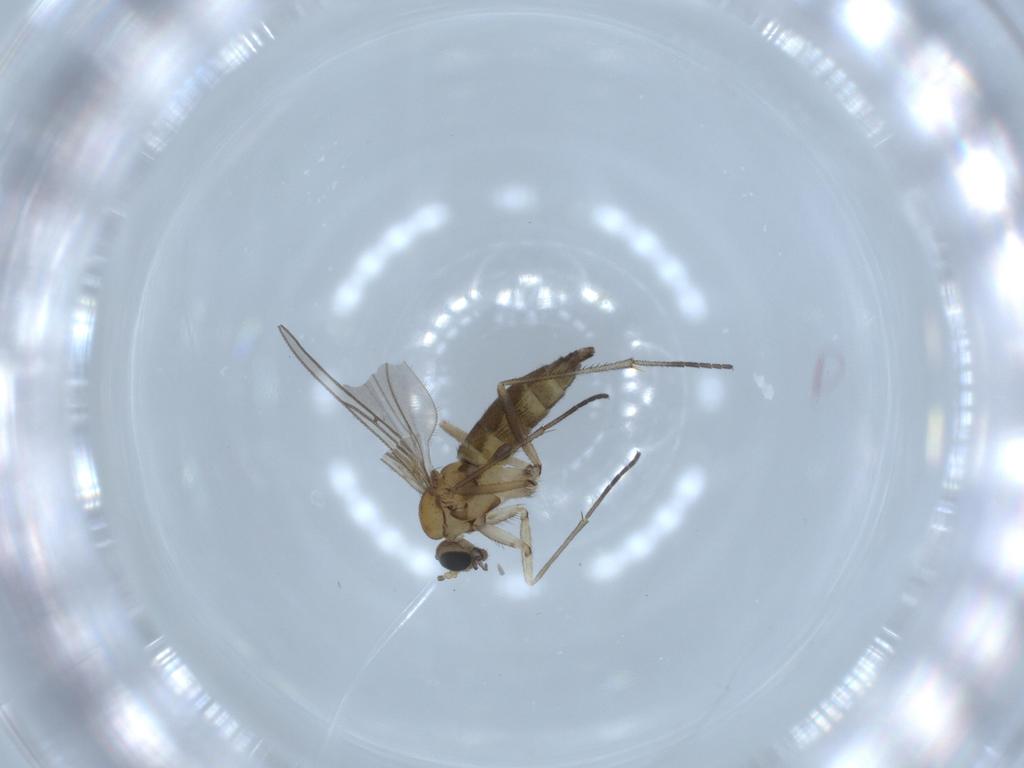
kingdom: Animalia
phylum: Arthropoda
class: Insecta
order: Diptera
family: Sciaridae
